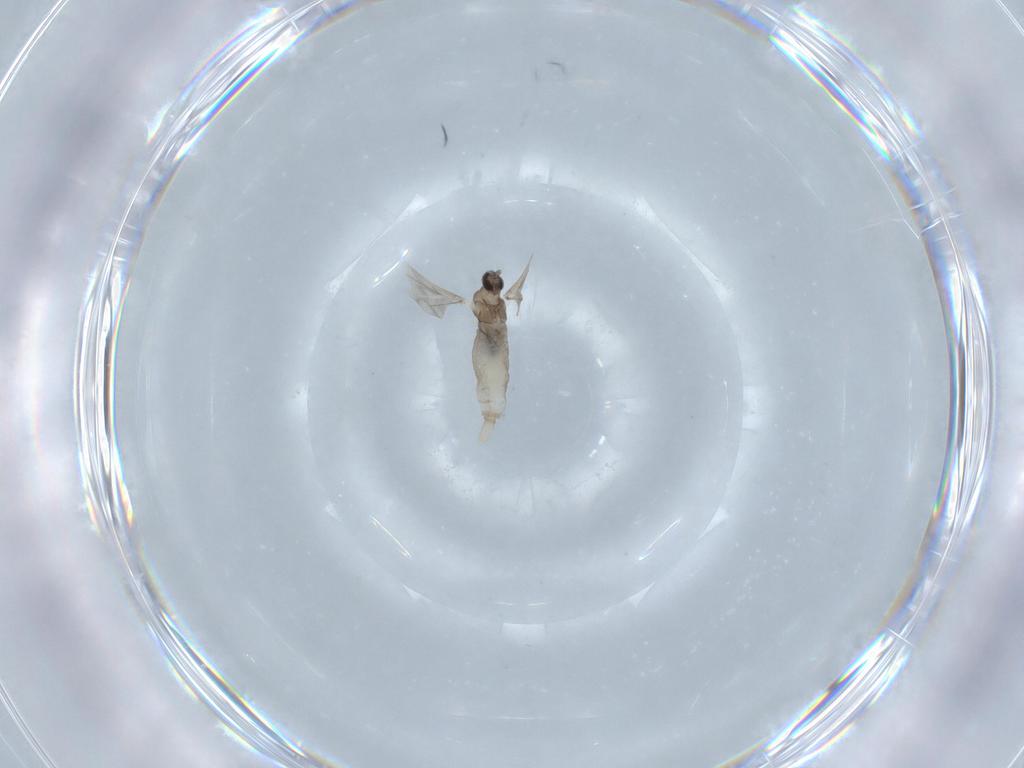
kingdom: Animalia
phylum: Arthropoda
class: Insecta
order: Diptera
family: Cecidomyiidae
